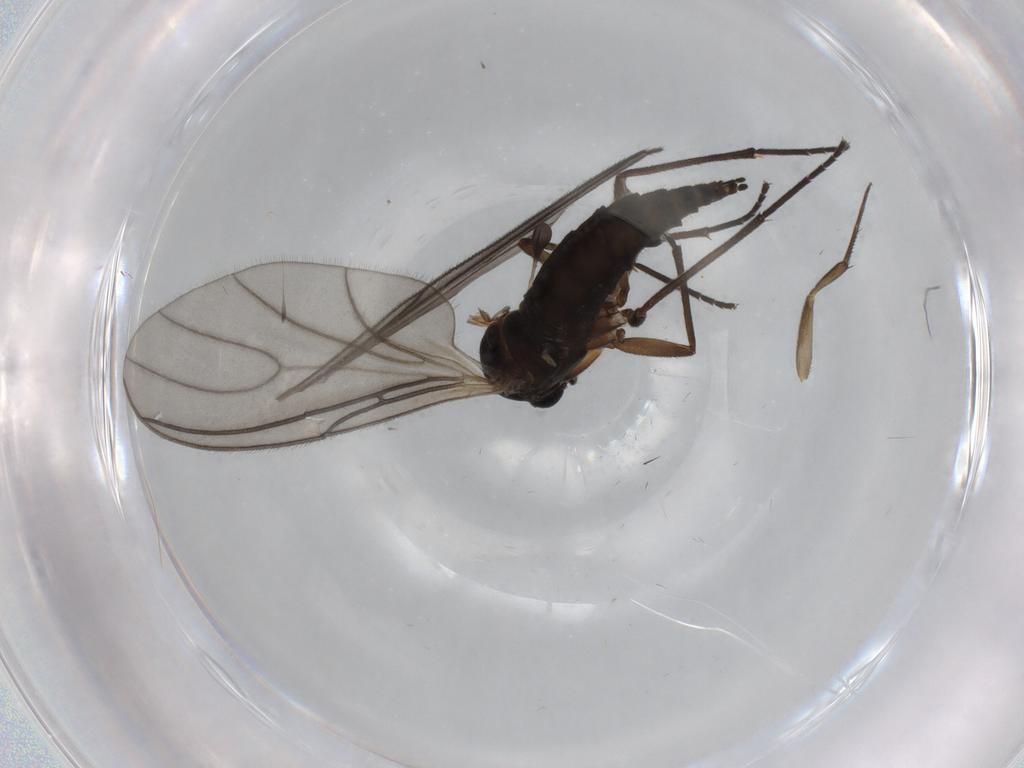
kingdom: Animalia
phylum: Arthropoda
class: Insecta
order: Diptera
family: Sciaridae
